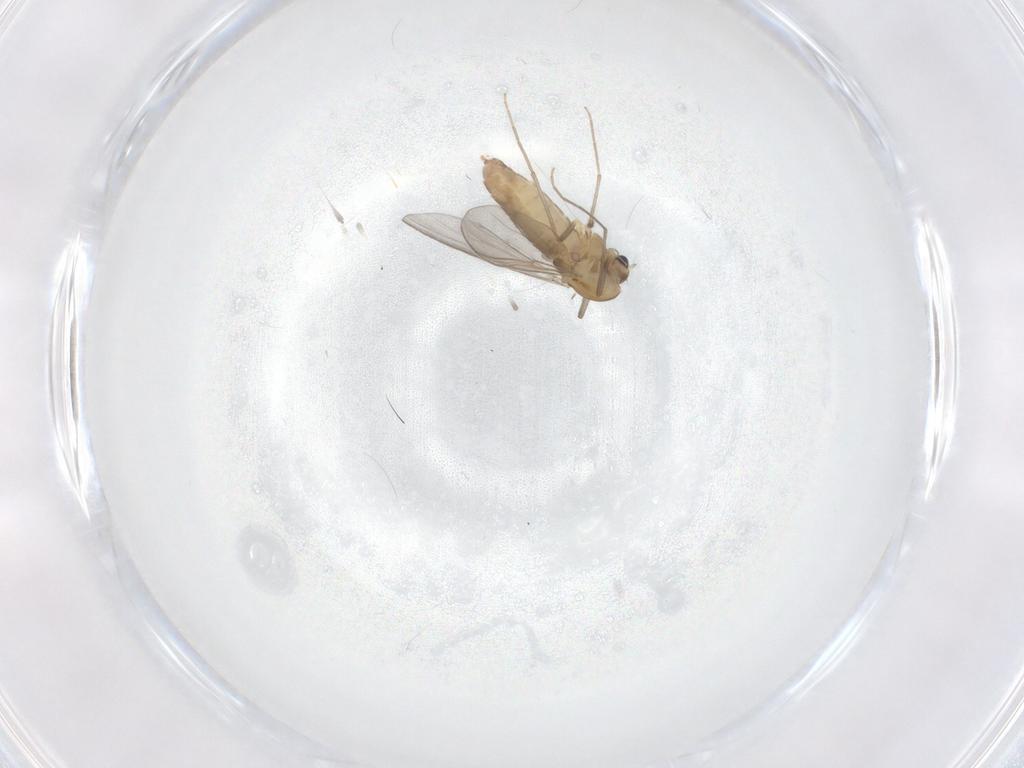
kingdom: Animalia
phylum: Arthropoda
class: Insecta
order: Diptera
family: Chironomidae
